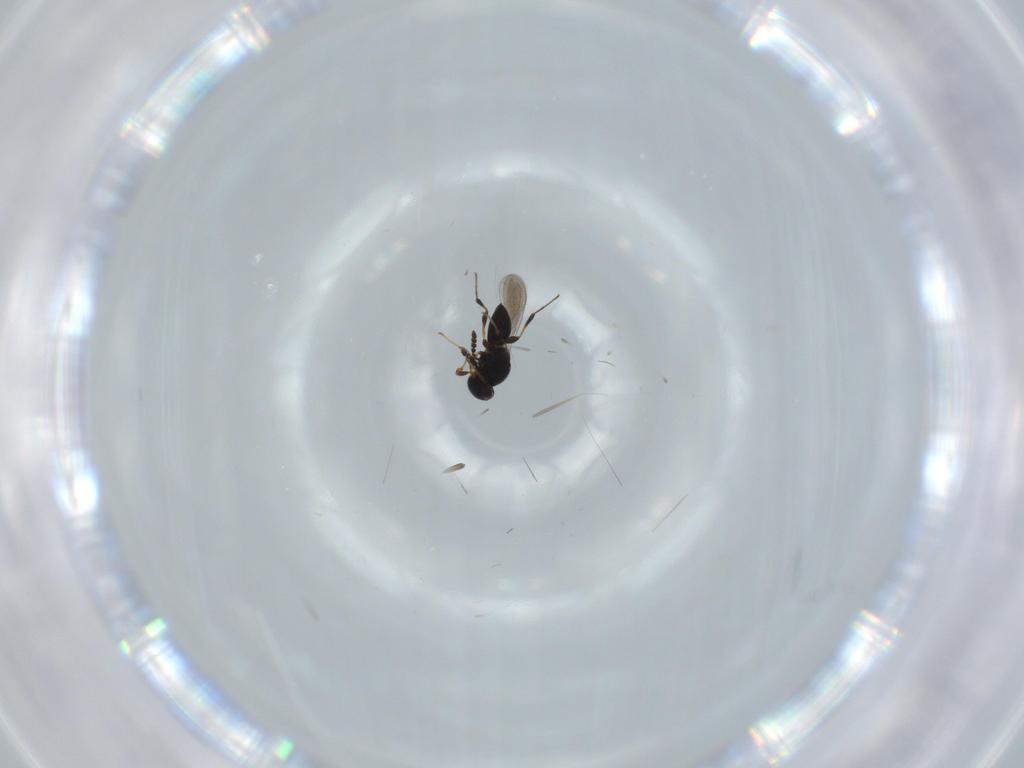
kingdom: Animalia
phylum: Arthropoda
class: Insecta
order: Hymenoptera
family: Platygastridae
